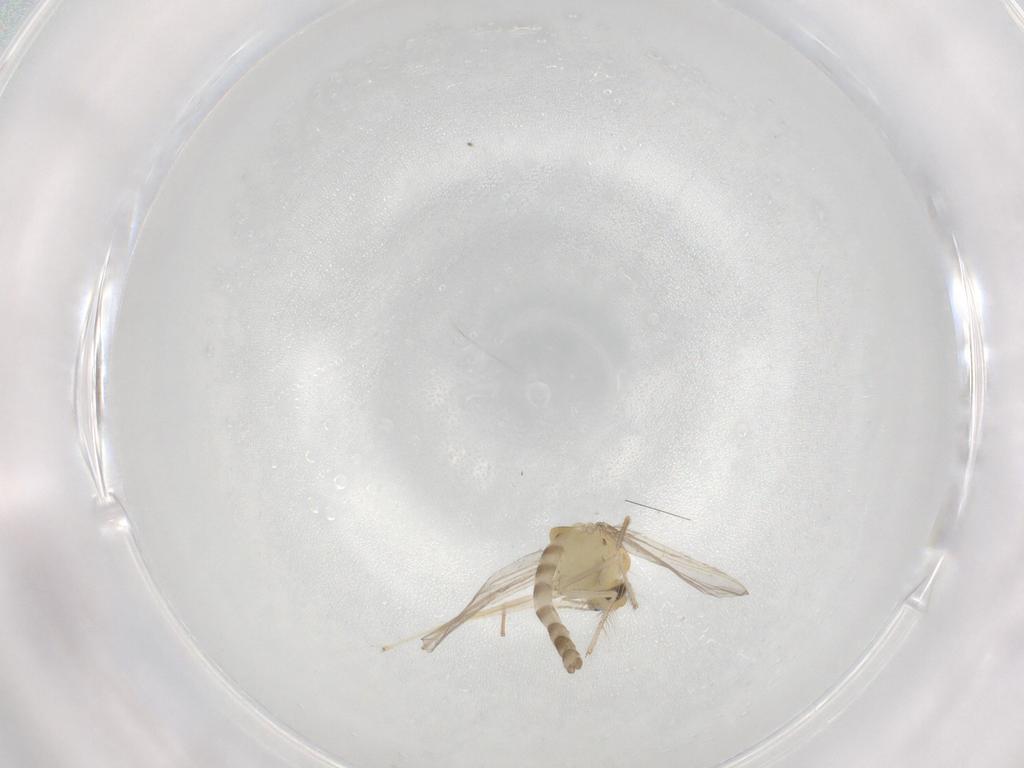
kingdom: Animalia
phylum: Arthropoda
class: Insecta
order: Diptera
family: Chironomidae
